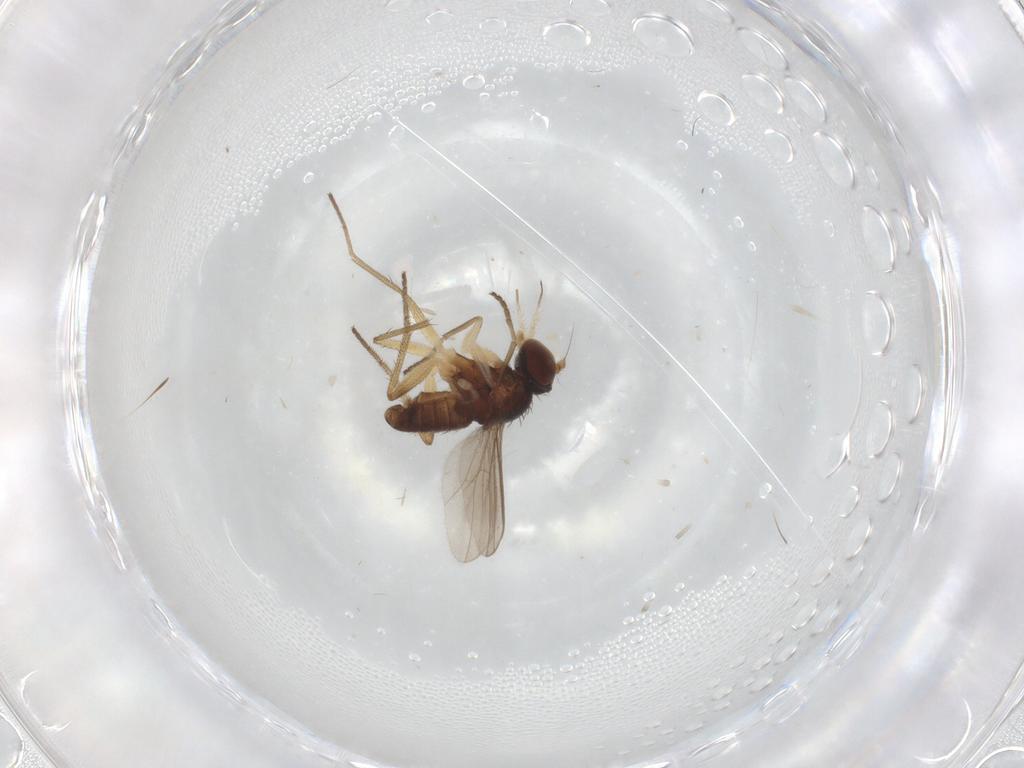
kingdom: Animalia
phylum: Arthropoda
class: Insecta
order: Diptera
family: Dolichopodidae
